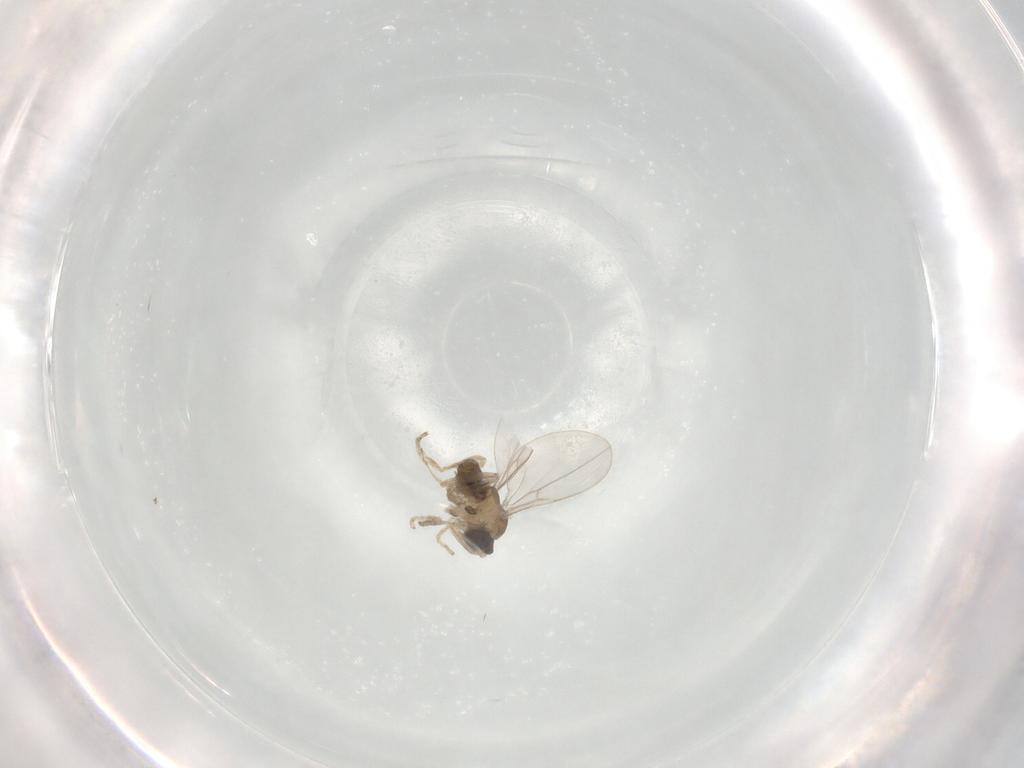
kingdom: Animalia
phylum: Arthropoda
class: Insecta
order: Diptera
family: Cecidomyiidae
